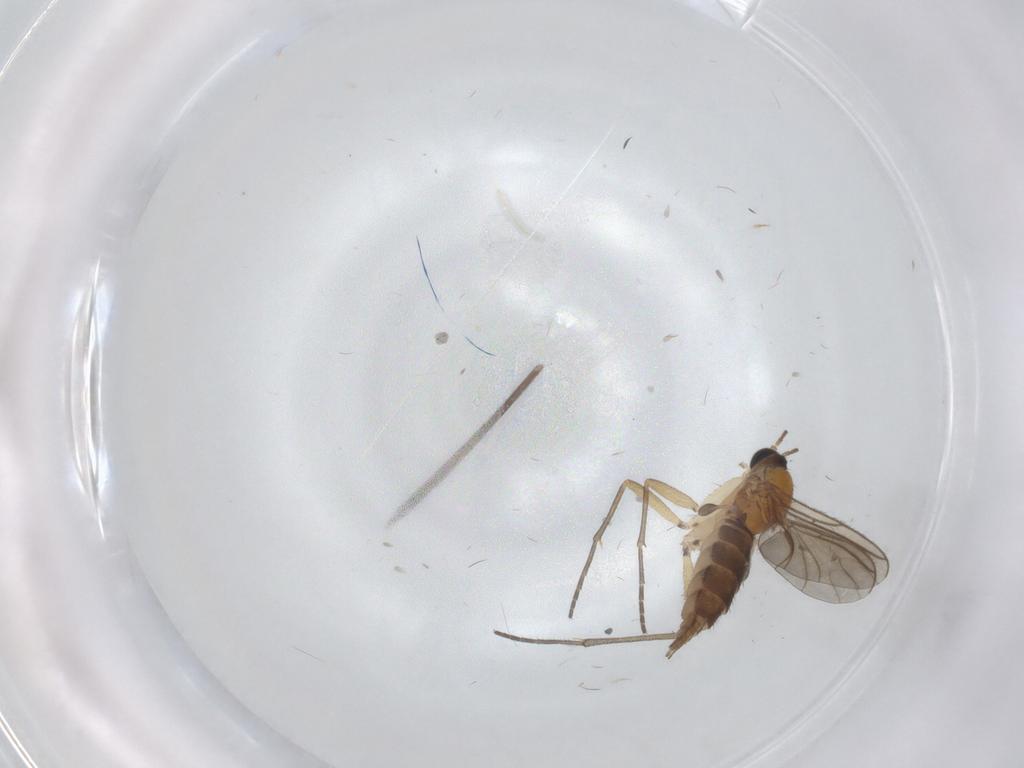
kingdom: Animalia
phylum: Arthropoda
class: Insecta
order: Diptera
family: Sciaridae
